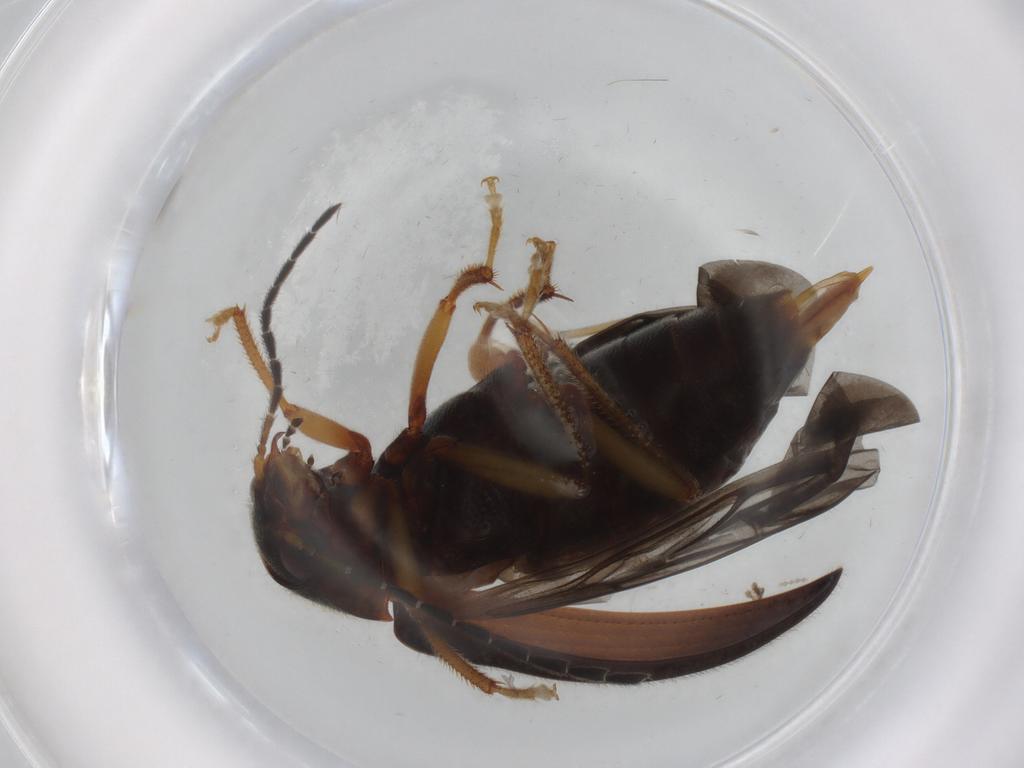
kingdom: Animalia
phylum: Arthropoda
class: Insecta
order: Coleoptera
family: Ptilodactylidae
